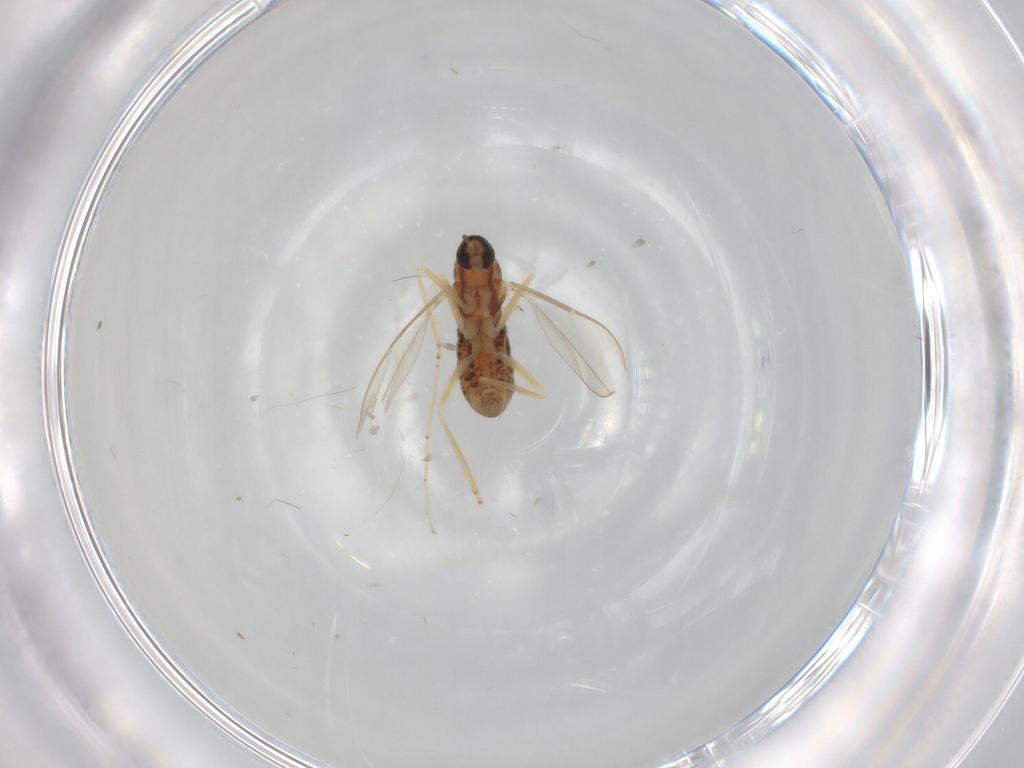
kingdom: Animalia
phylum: Arthropoda
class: Insecta
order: Diptera
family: Cecidomyiidae
